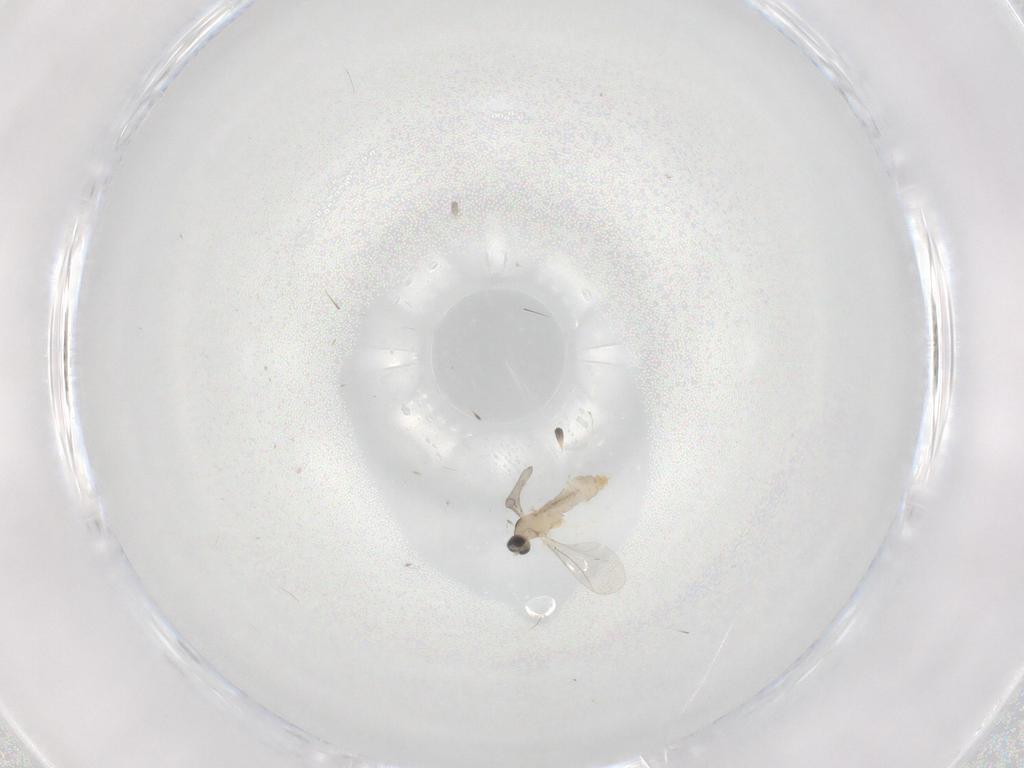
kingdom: Animalia
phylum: Arthropoda
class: Insecta
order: Diptera
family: Cecidomyiidae
